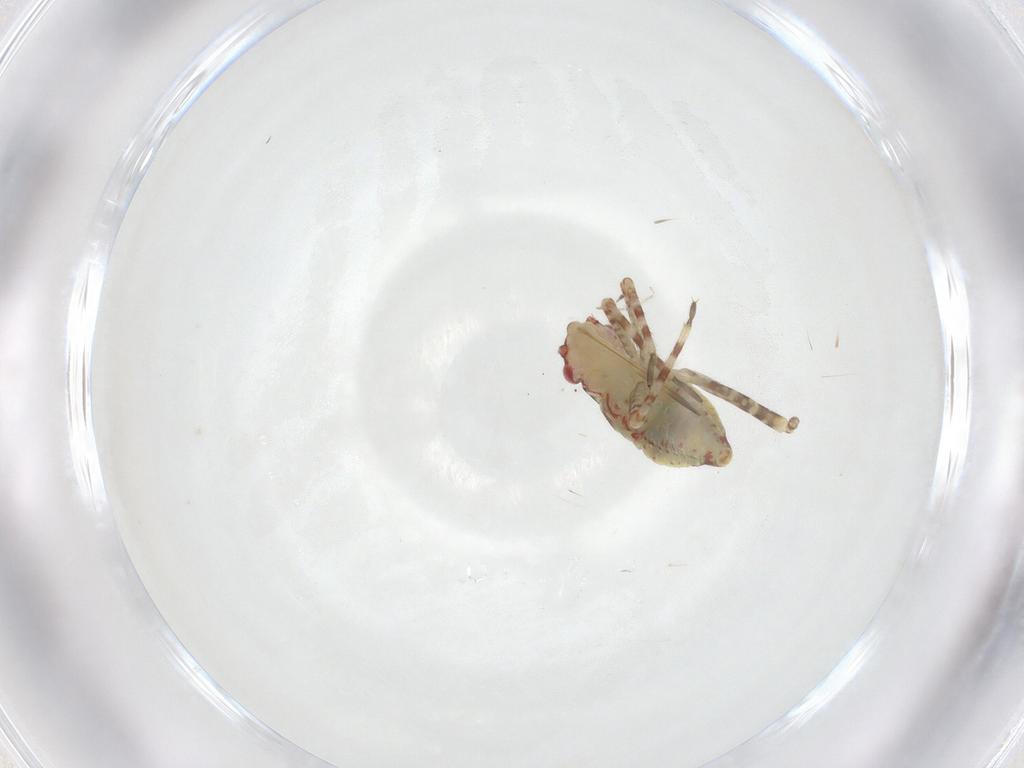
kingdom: Animalia
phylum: Arthropoda
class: Insecta
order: Hemiptera
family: Miridae
